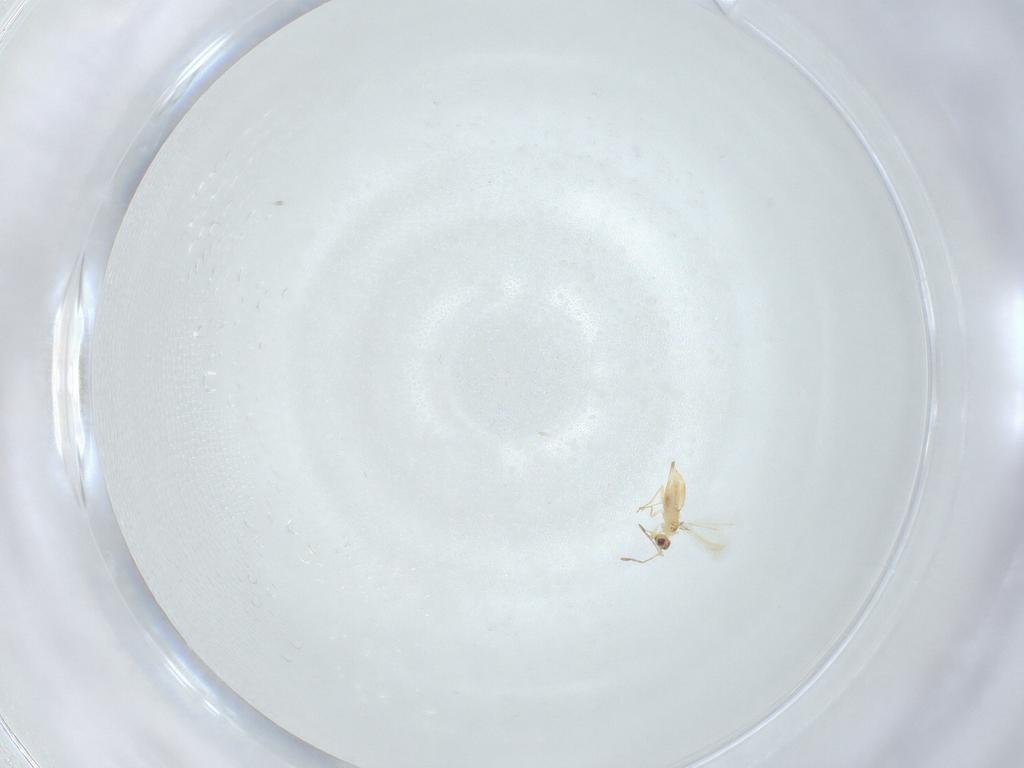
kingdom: Animalia
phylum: Arthropoda
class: Insecta
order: Hymenoptera
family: Mymaridae
